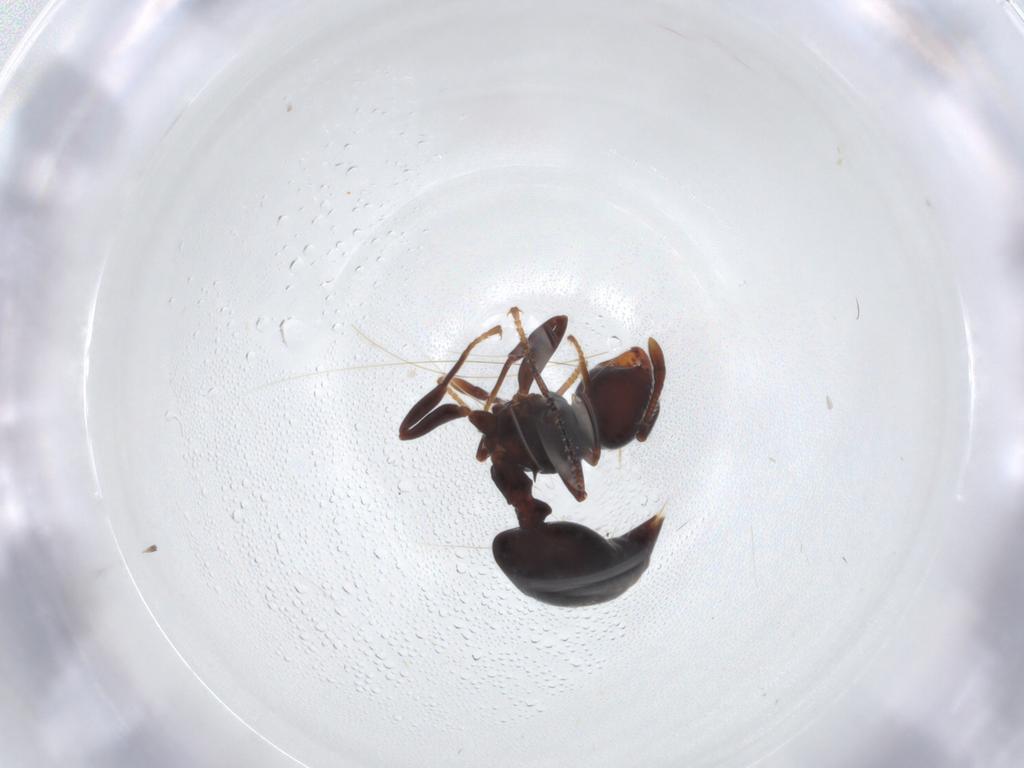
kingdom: Animalia
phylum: Arthropoda
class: Insecta
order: Hymenoptera
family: Formicidae
